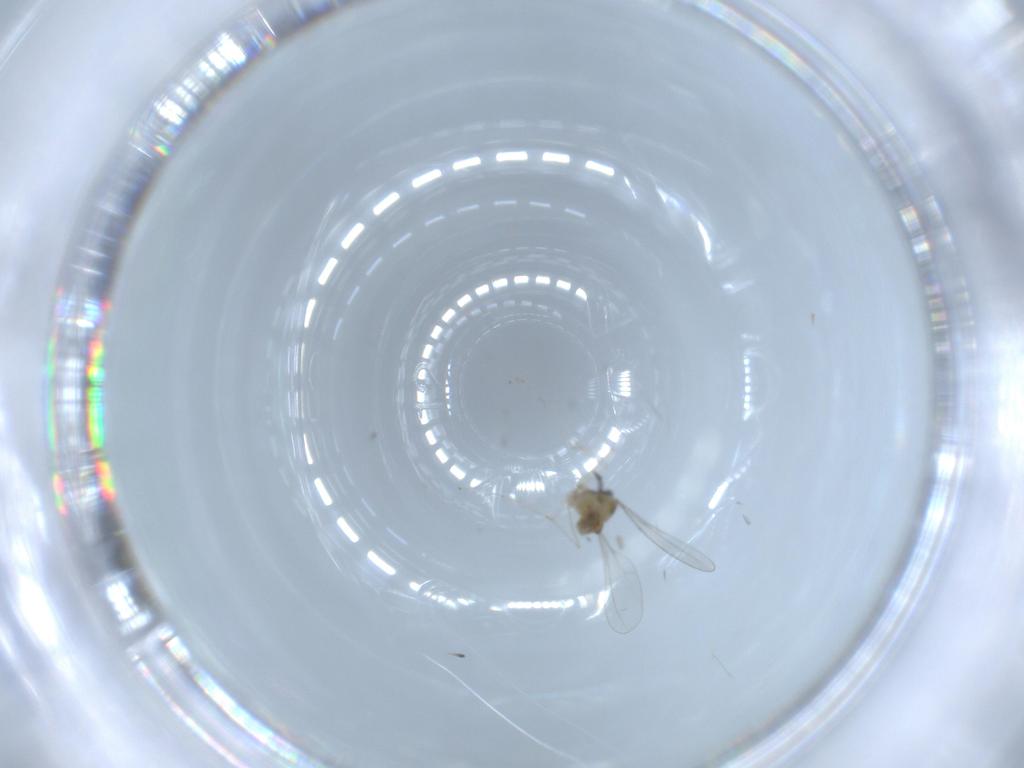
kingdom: Animalia
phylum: Arthropoda
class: Insecta
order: Diptera
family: Cecidomyiidae
